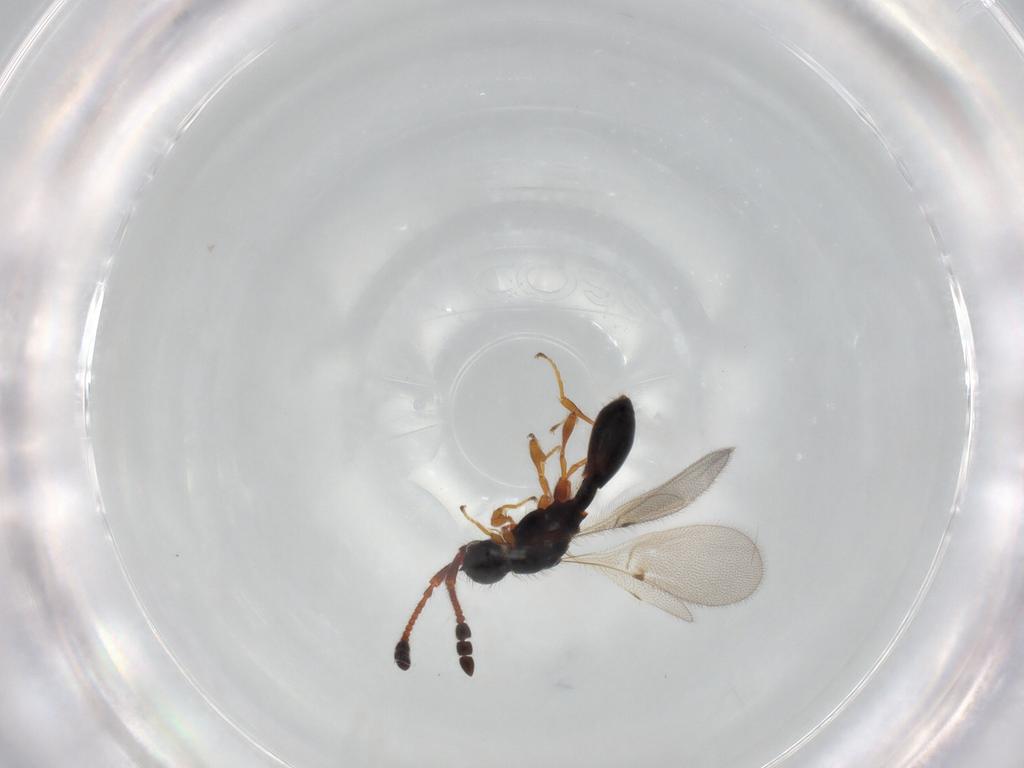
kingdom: Animalia
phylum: Arthropoda
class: Insecta
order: Hymenoptera
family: Diapriidae
